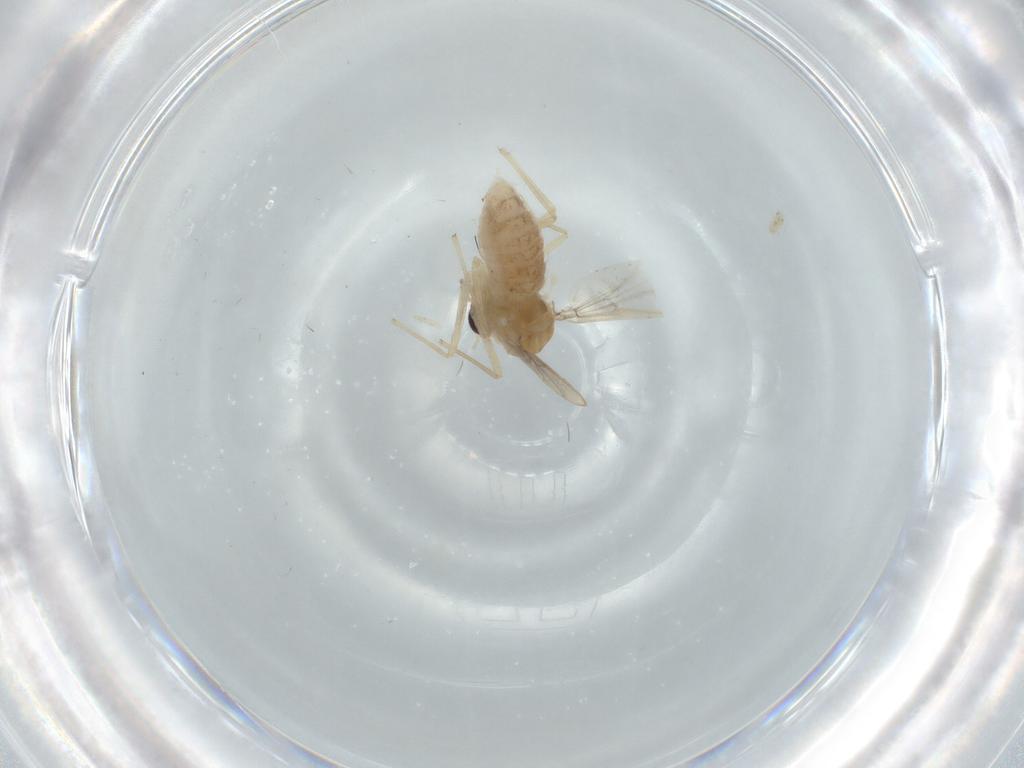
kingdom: Animalia
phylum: Arthropoda
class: Insecta
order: Diptera
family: Chironomidae
